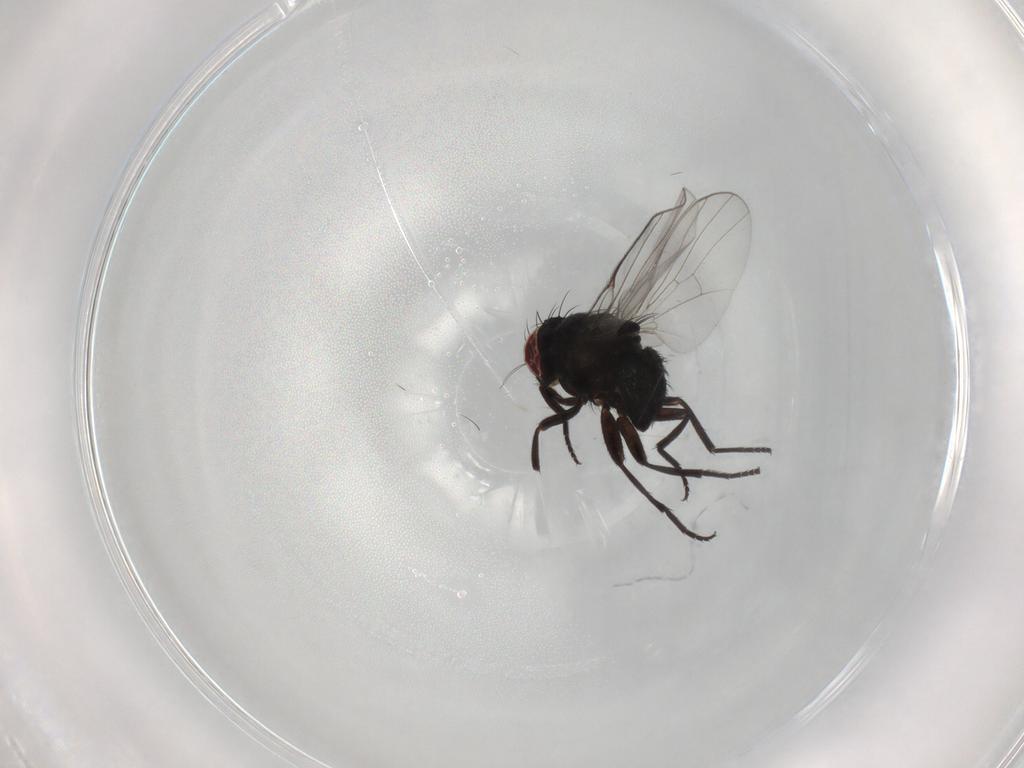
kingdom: Animalia
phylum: Arthropoda
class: Insecta
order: Diptera
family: Agromyzidae
